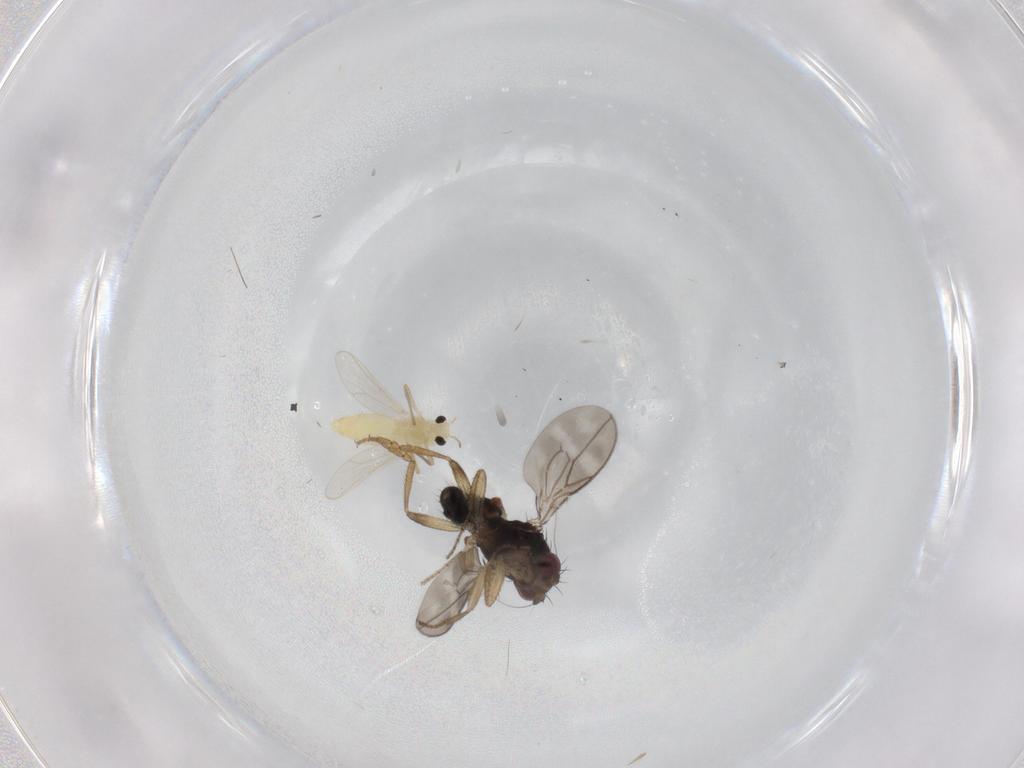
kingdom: Animalia
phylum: Arthropoda
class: Insecta
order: Diptera
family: Sphaeroceridae
